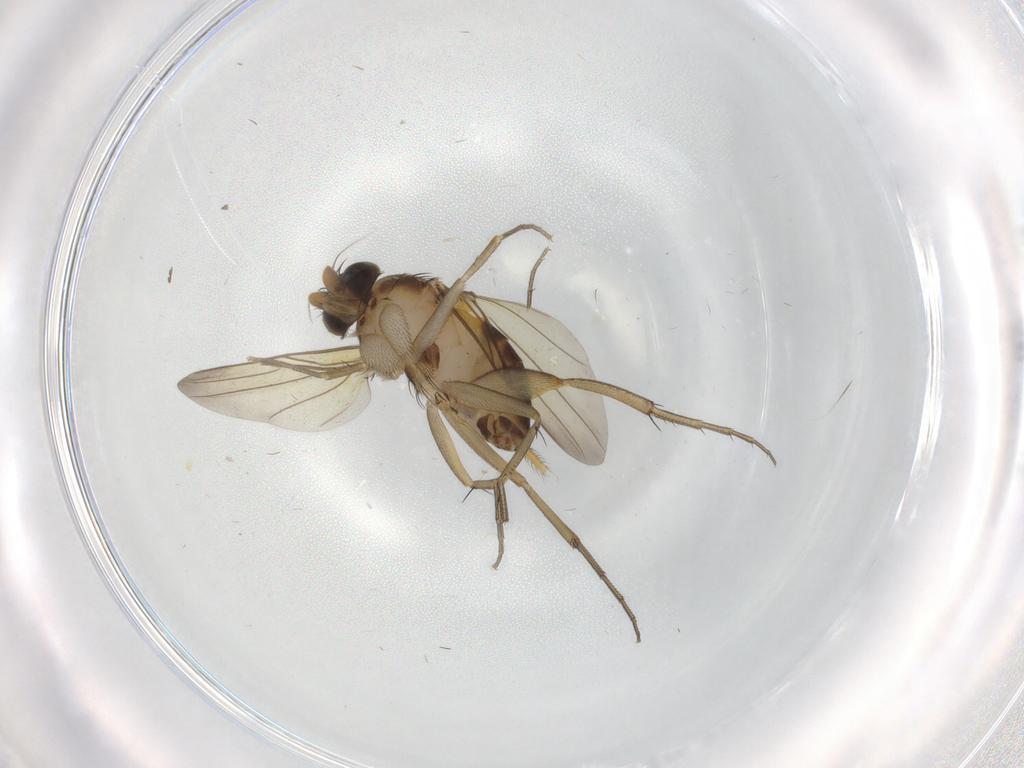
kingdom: Animalia
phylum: Arthropoda
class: Insecta
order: Diptera
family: Phoridae
